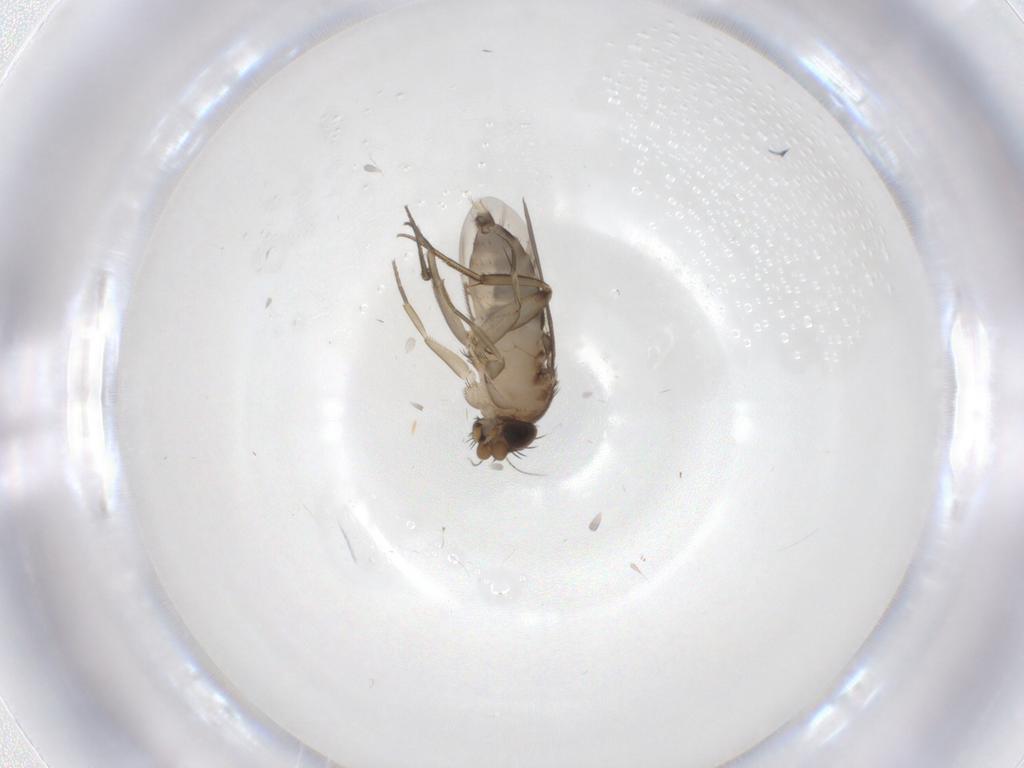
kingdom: Animalia
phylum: Arthropoda
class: Insecta
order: Diptera
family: Phoridae
